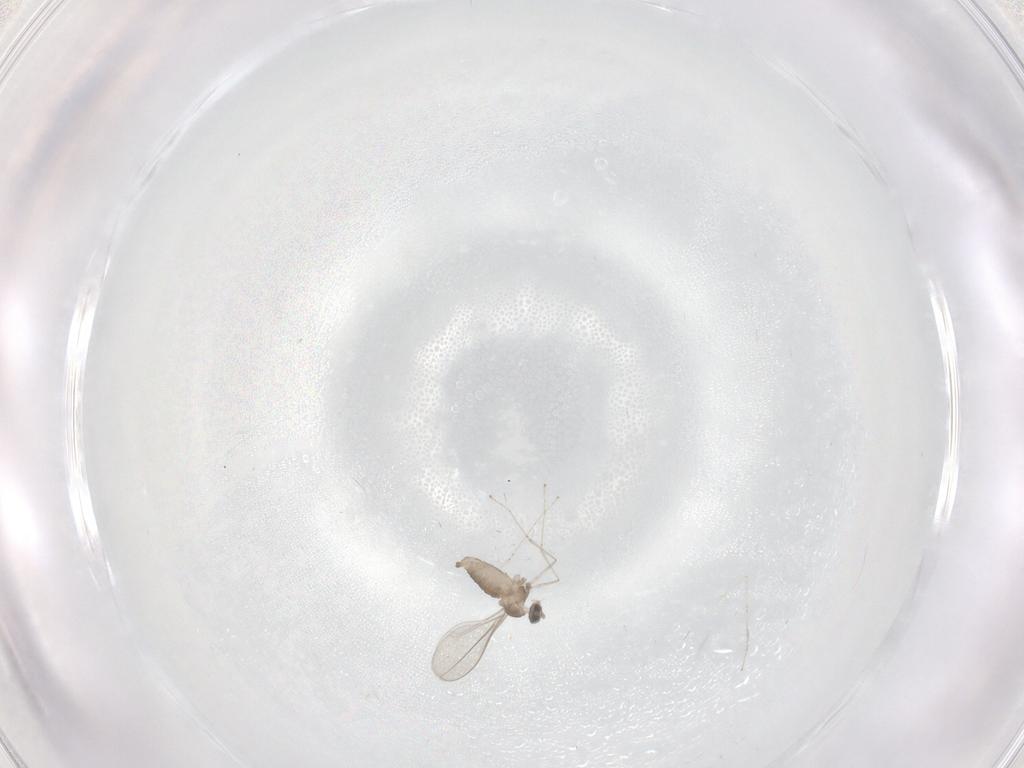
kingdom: Animalia
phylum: Arthropoda
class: Insecta
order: Diptera
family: Cecidomyiidae
